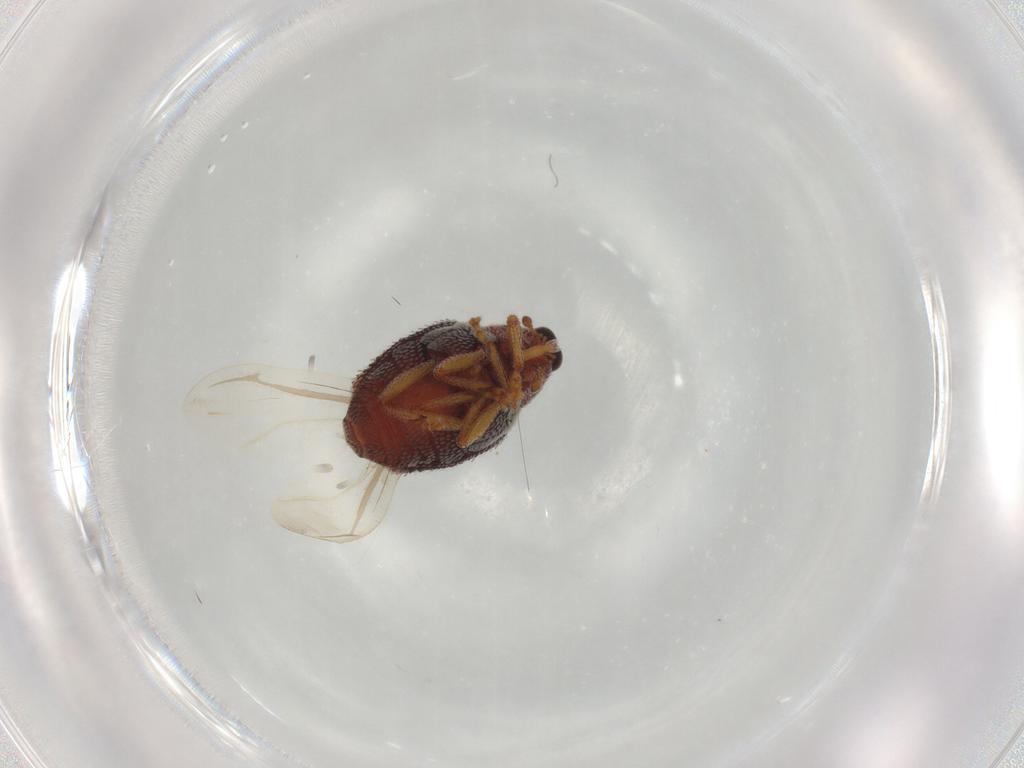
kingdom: Animalia
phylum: Arthropoda
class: Insecta
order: Coleoptera
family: Curculionidae
